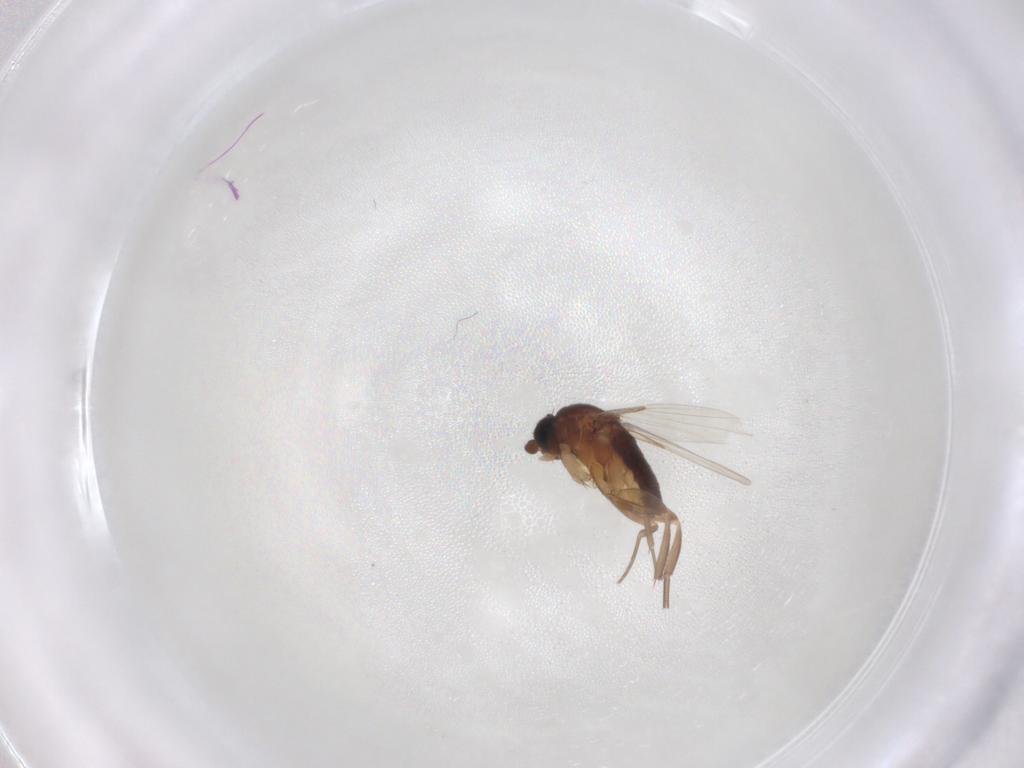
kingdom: Animalia
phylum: Arthropoda
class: Insecta
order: Diptera
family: Phoridae
